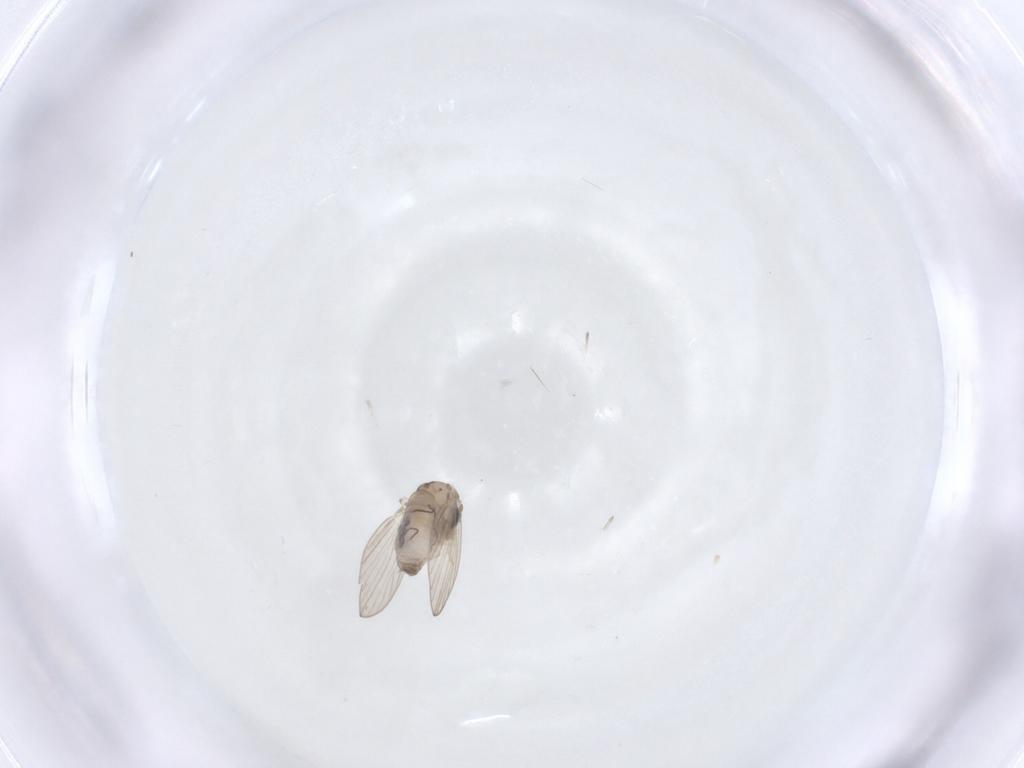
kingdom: Animalia
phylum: Arthropoda
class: Insecta
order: Diptera
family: Psychodidae
